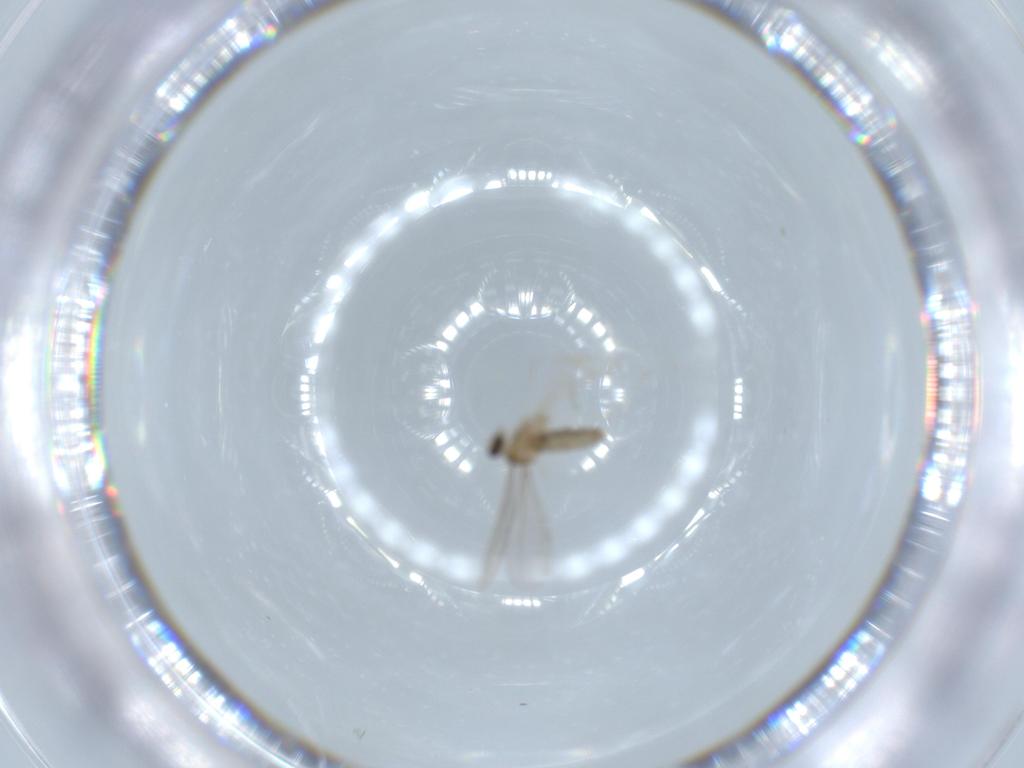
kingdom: Animalia
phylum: Arthropoda
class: Insecta
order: Diptera
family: Cecidomyiidae
